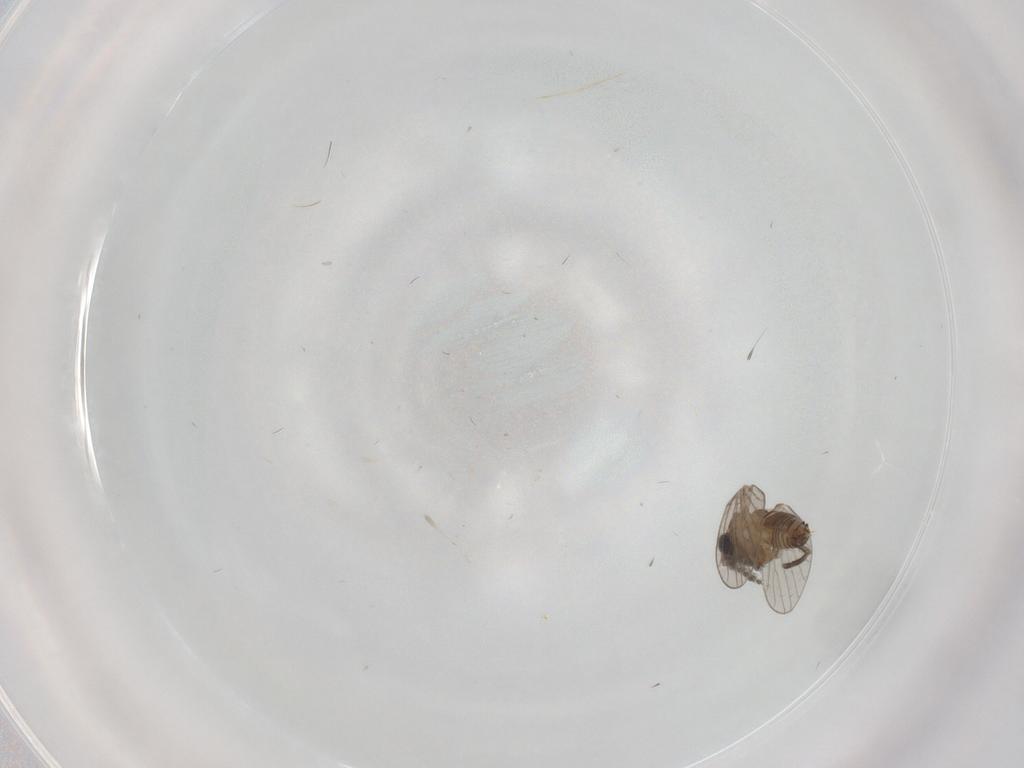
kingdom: Animalia
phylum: Arthropoda
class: Insecta
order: Diptera
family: Psychodidae
